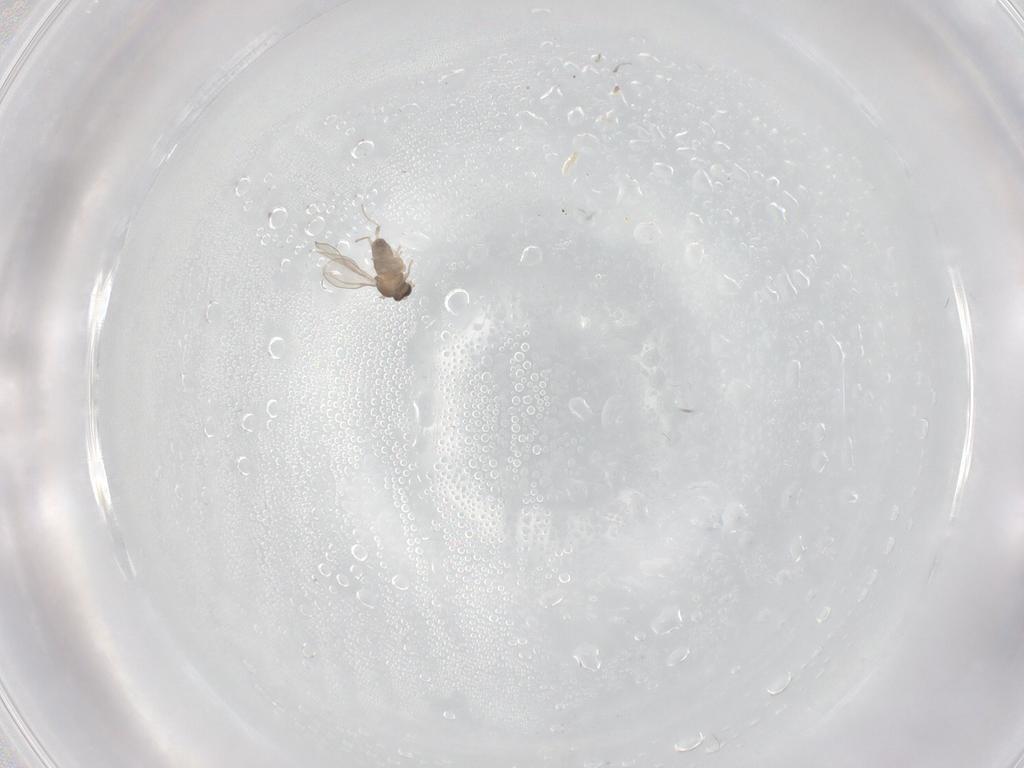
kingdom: Animalia
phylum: Arthropoda
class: Insecta
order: Diptera
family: Cecidomyiidae
